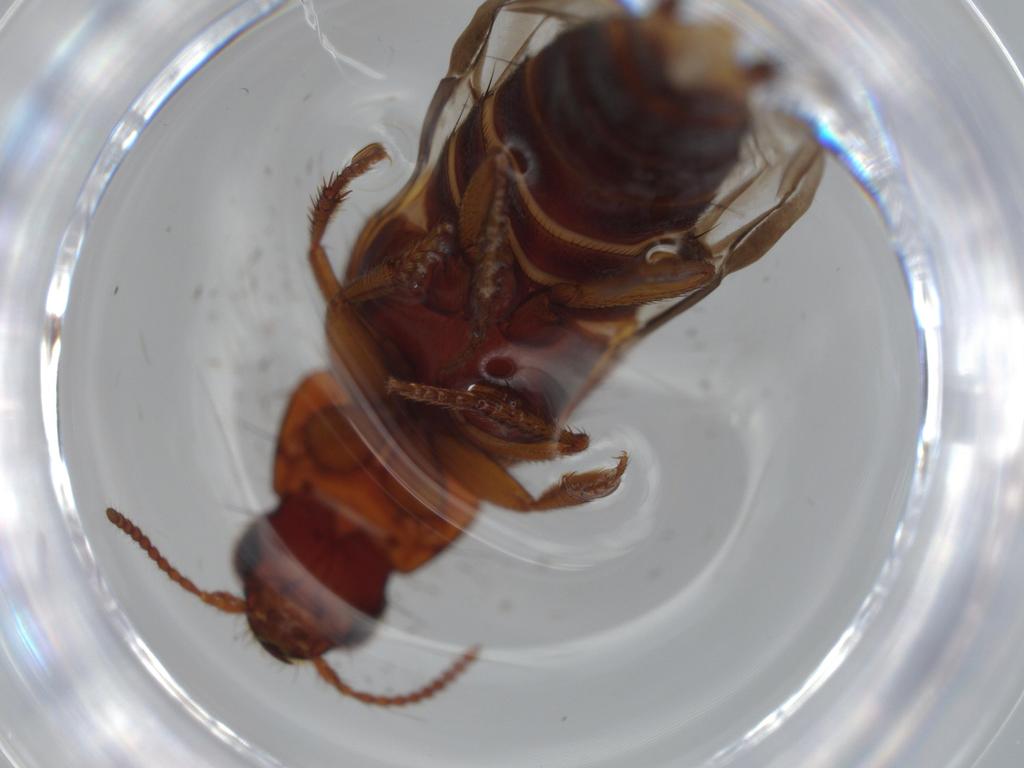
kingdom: Animalia
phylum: Arthropoda
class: Insecta
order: Coleoptera
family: Staphylinidae
